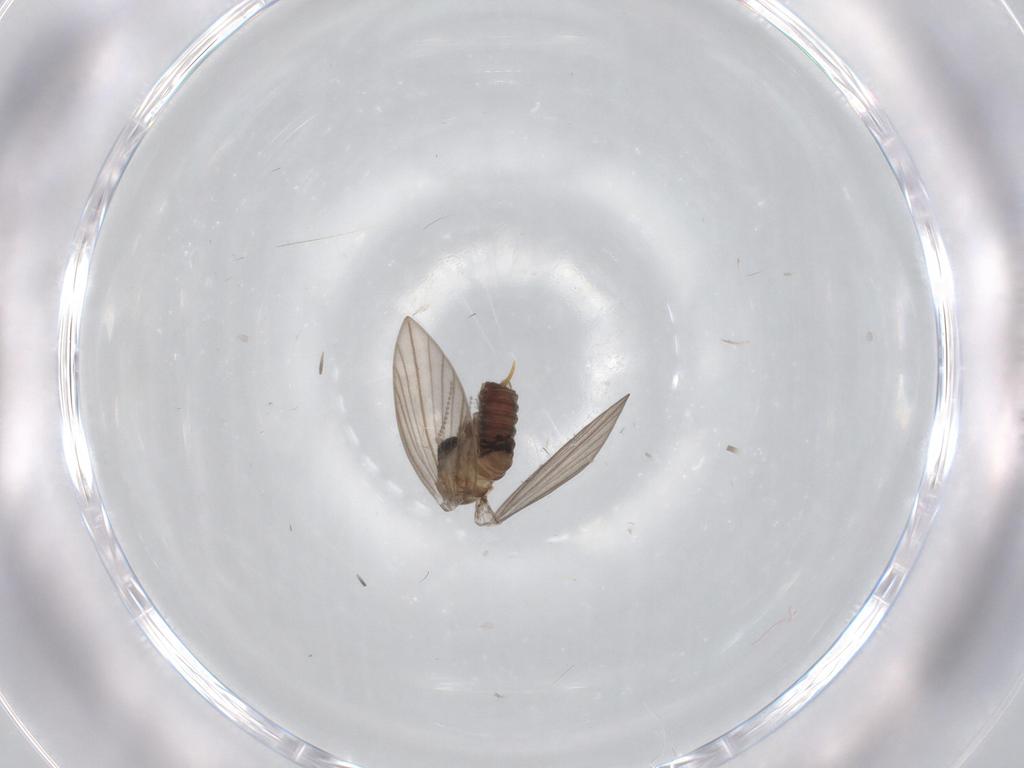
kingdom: Animalia
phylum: Arthropoda
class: Insecta
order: Diptera
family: Psychodidae
